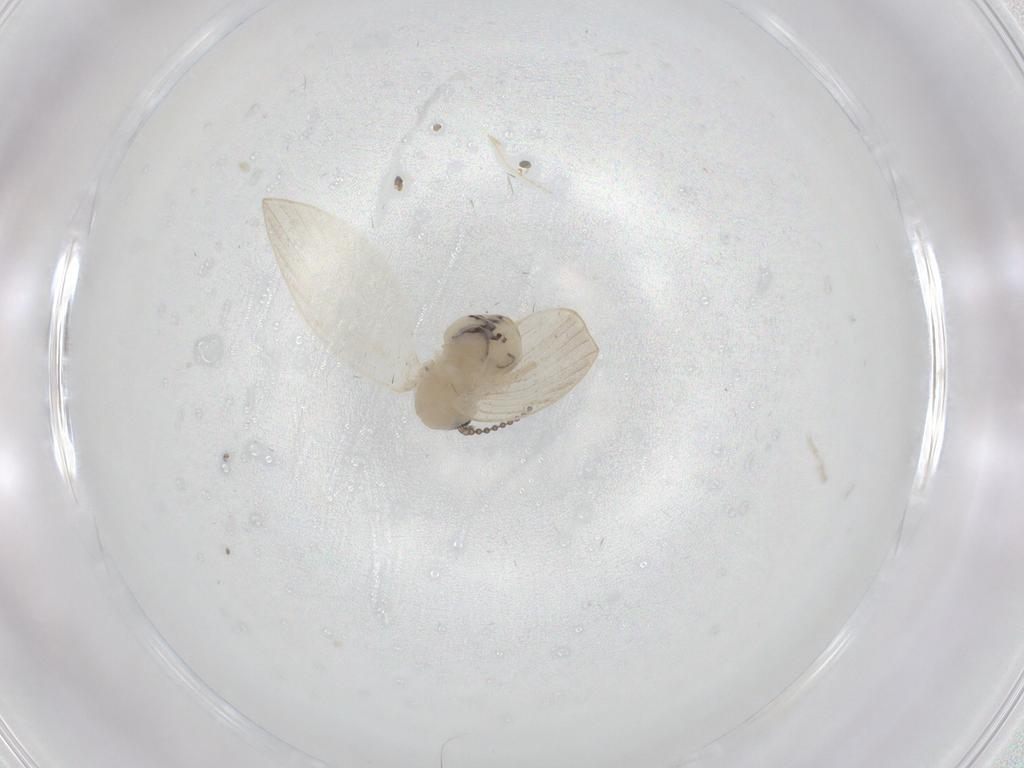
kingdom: Animalia
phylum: Arthropoda
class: Insecta
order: Diptera
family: Psychodidae
